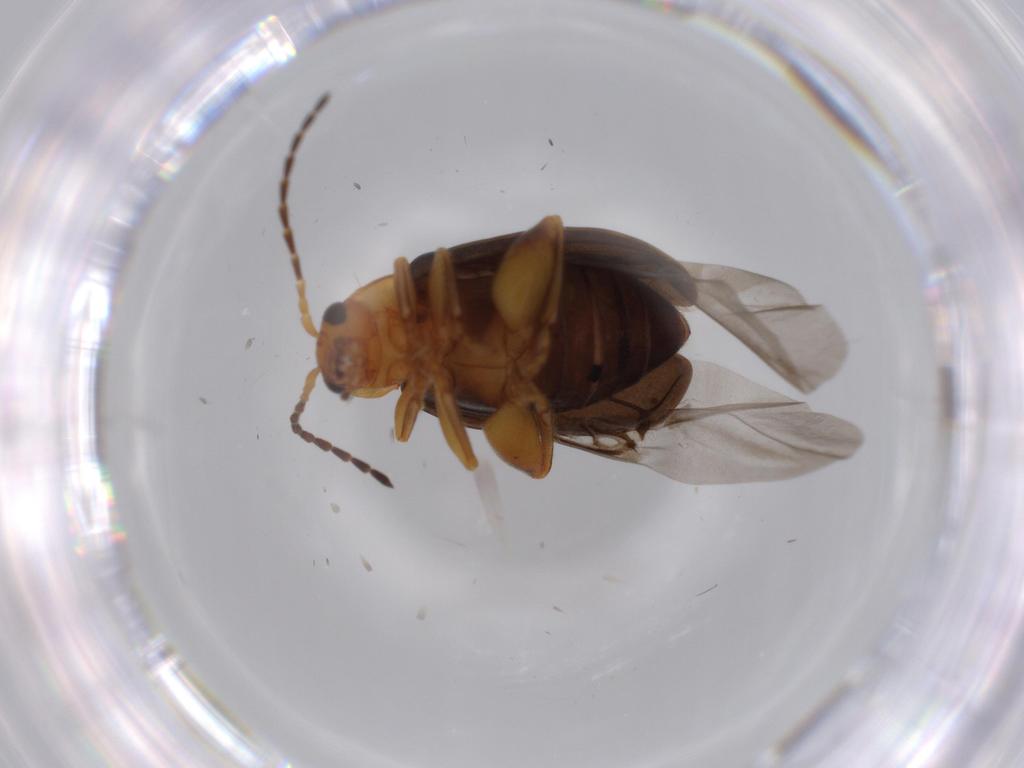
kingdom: Animalia
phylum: Arthropoda
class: Insecta
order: Coleoptera
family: Chrysomelidae
